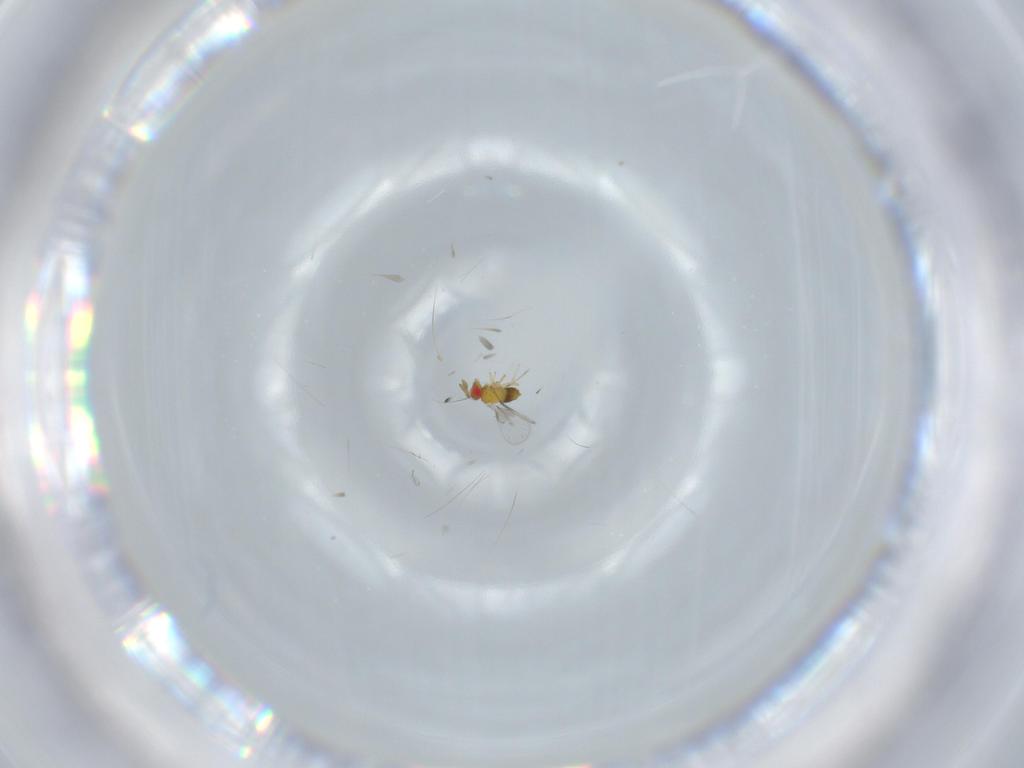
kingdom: Animalia
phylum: Arthropoda
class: Insecta
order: Hymenoptera
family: Trichogrammatidae
